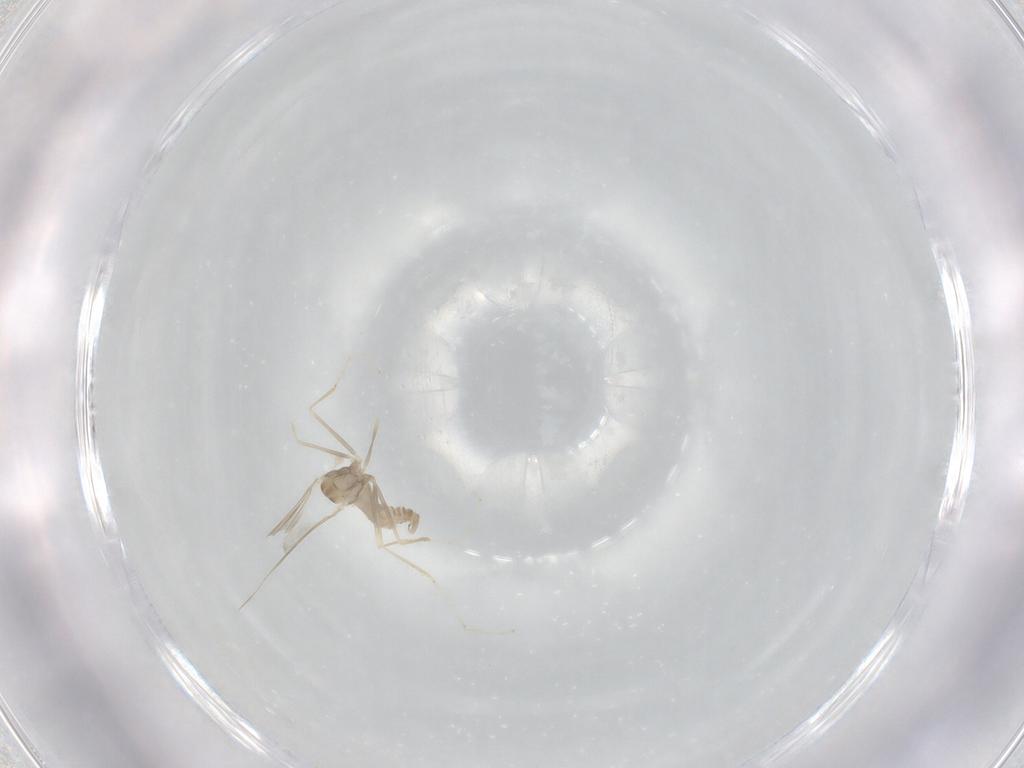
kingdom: Animalia
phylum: Arthropoda
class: Insecta
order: Diptera
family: Cecidomyiidae
